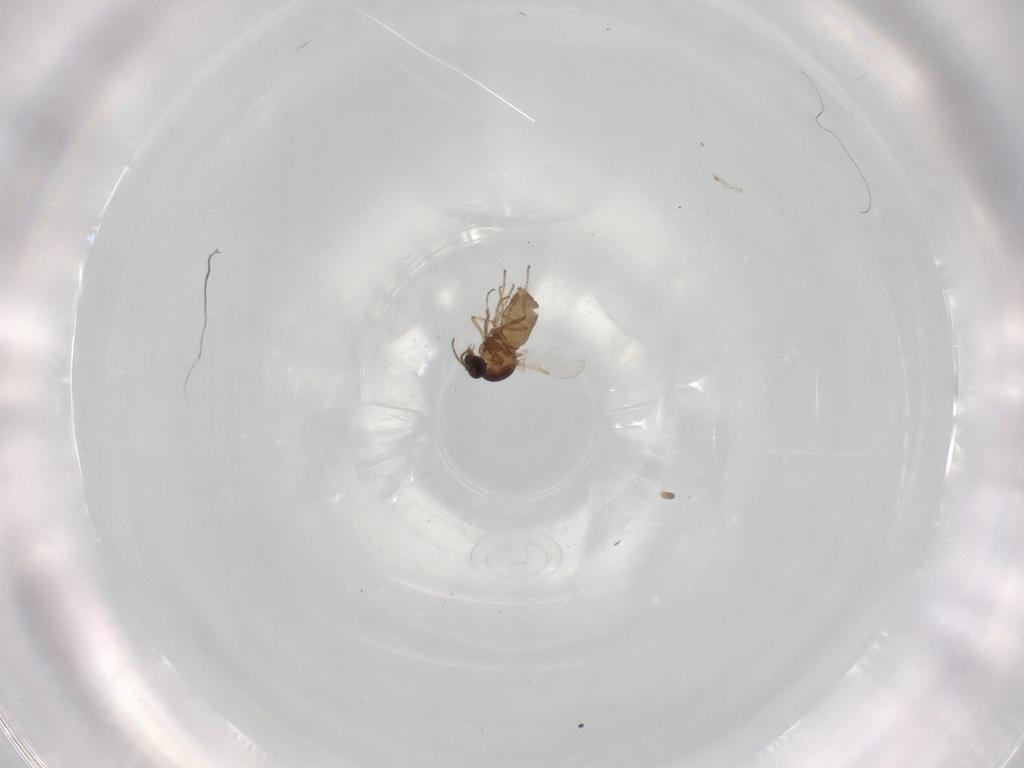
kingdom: Animalia
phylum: Arthropoda
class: Insecta
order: Diptera
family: Ceratopogonidae
